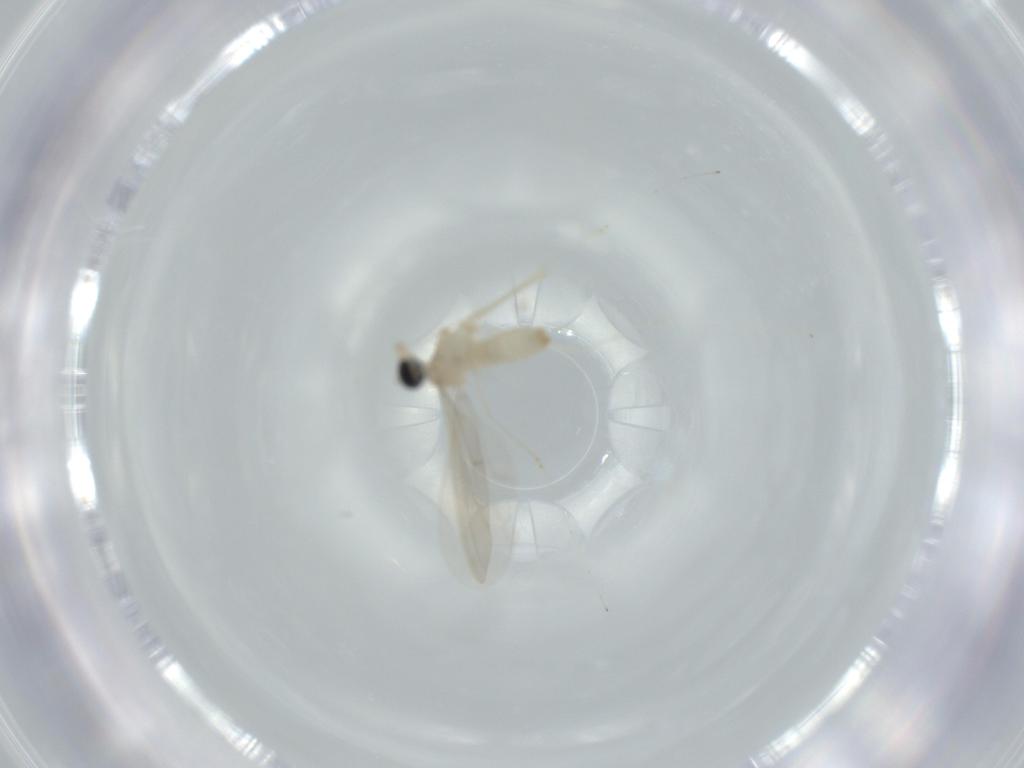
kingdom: Animalia
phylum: Arthropoda
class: Insecta
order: Diptera
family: Cecidomyiidae
